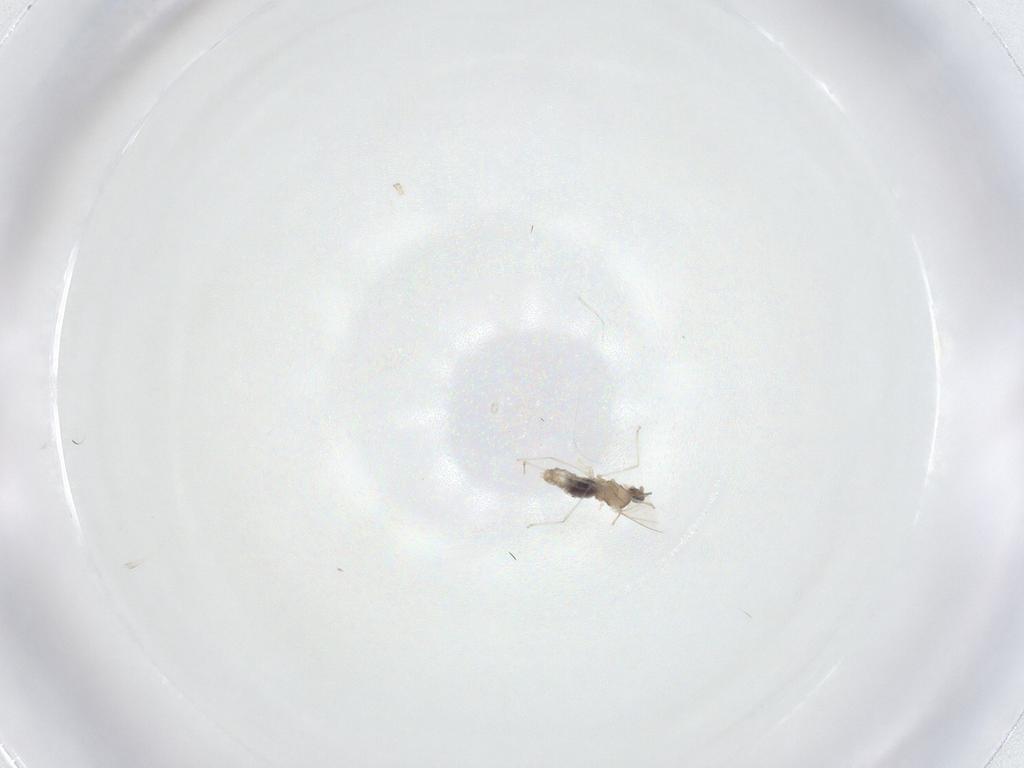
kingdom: Animalia
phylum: Arthropoda
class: Insecta
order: Diptera
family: Cecidomyiidae
